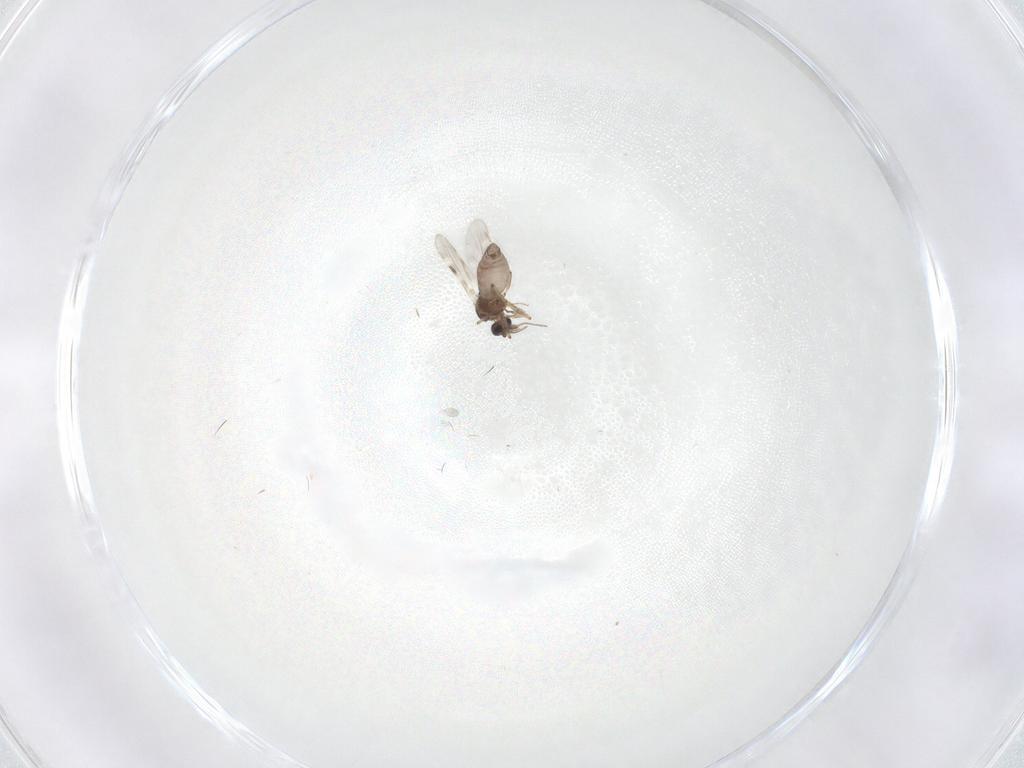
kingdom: Animalia
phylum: Arthropoda
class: Insecta
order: Diptera
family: Cecidomyiidae
